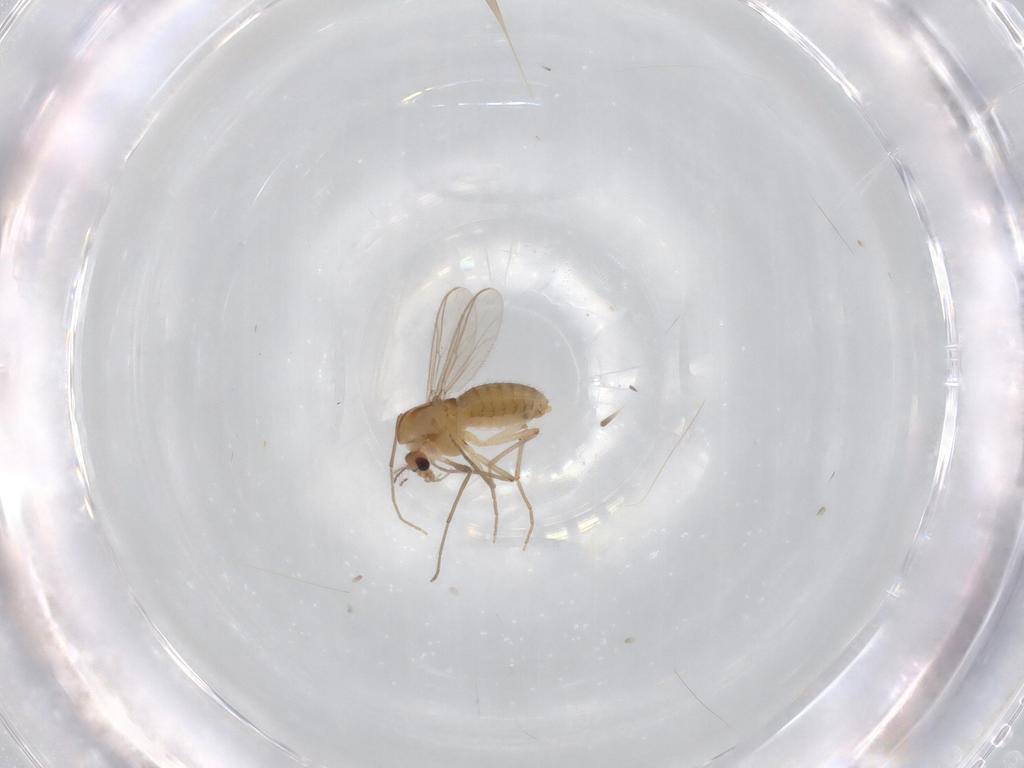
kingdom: Animalia
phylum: Arthropoda
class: Insecta
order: Diptera
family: Chironomidae
